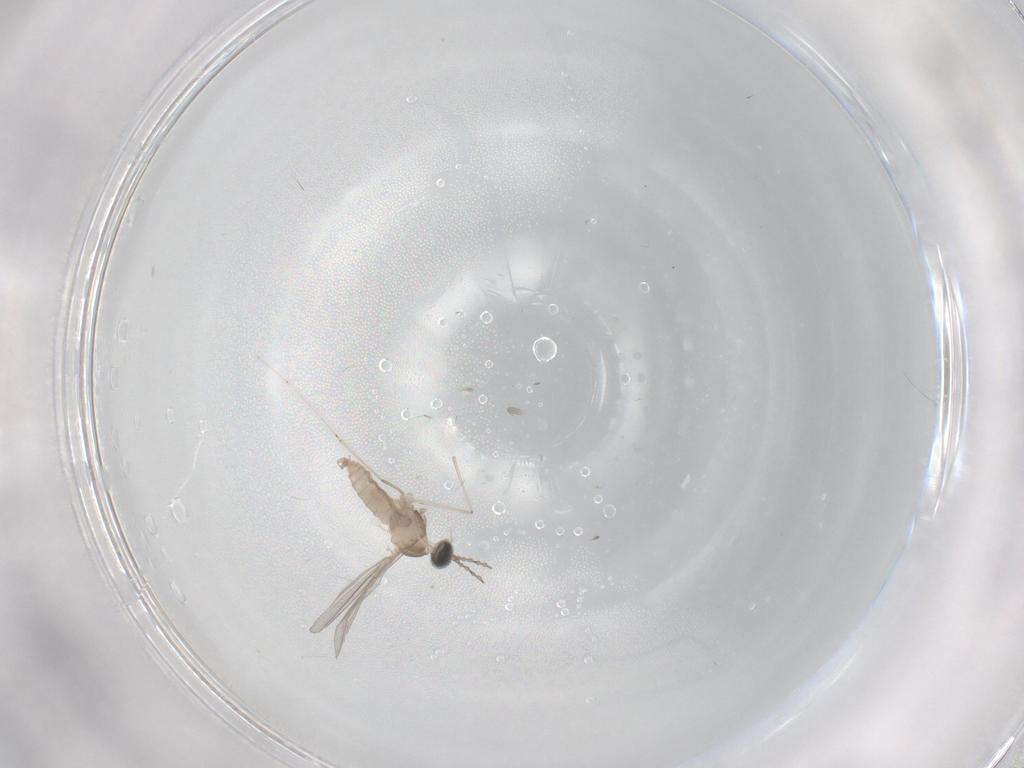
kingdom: Animalia
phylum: Arthropoda
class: Insecta
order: Diptera
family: Cecidomyiidae
